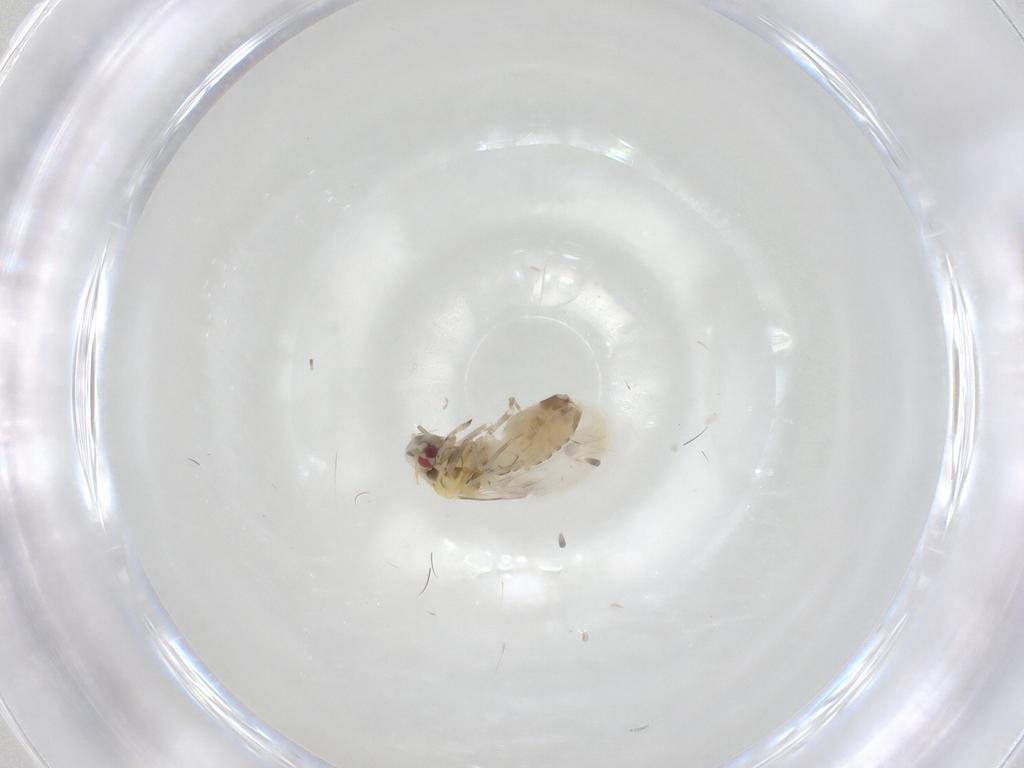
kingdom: Animalia
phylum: Arthropoda
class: Insecta
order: Hemiptera
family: Aleyrodidae
